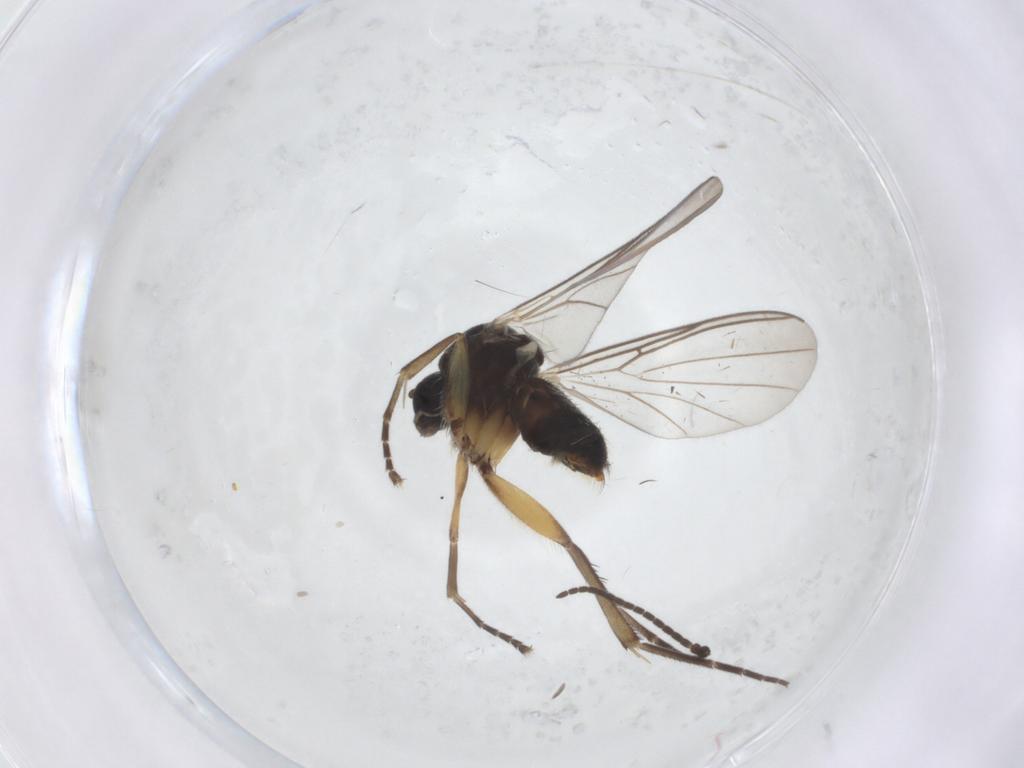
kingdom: Animalia
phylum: Arthropoda
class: Insecta
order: Diptera
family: Mycetophilidae
